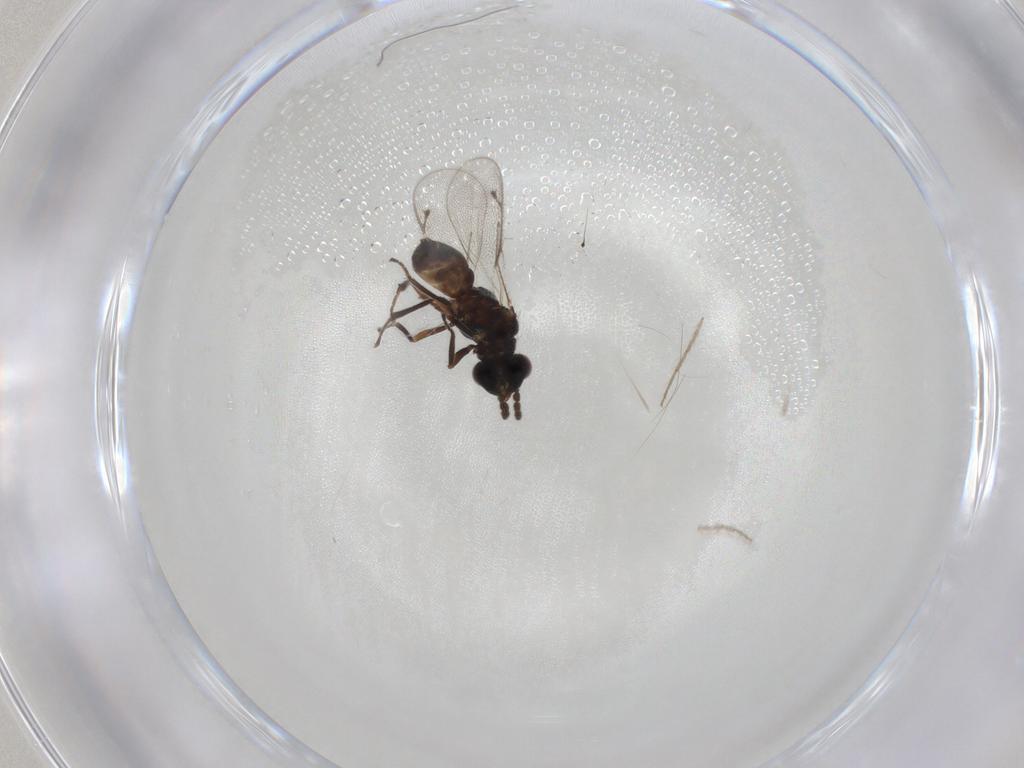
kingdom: Animalia
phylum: Arthropoda
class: Insecta
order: Hymenoptera
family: Eulophidae
